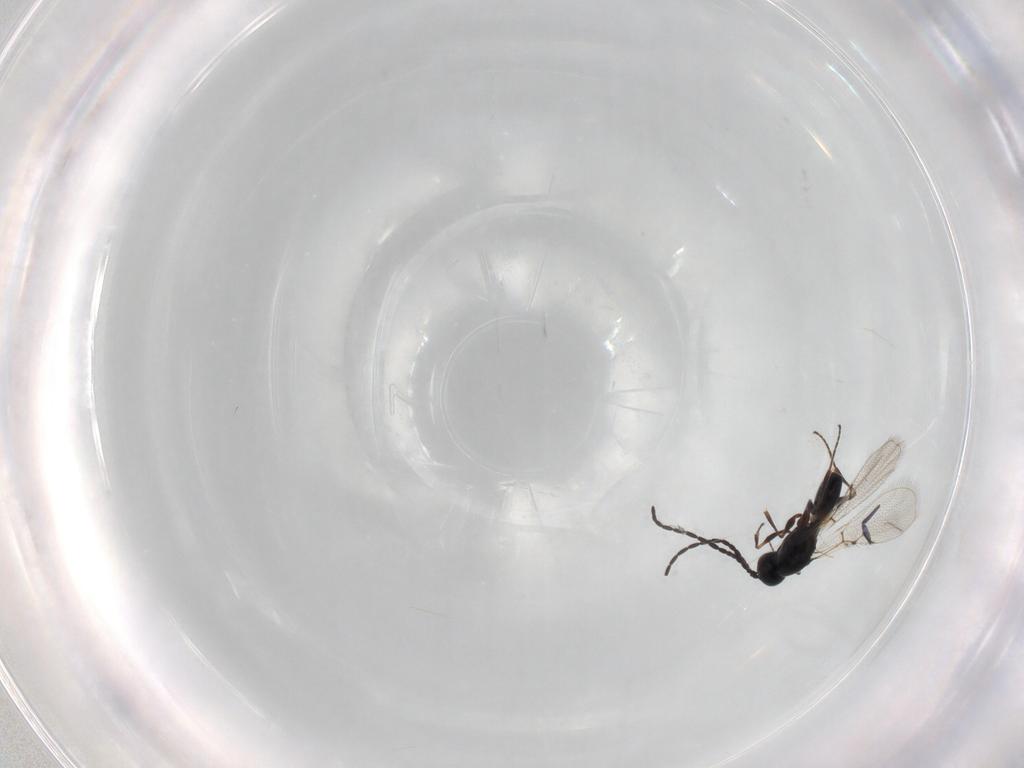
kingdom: Animalia
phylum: Arthropoda
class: Insecta
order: Hymenoptera
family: Figitidae
